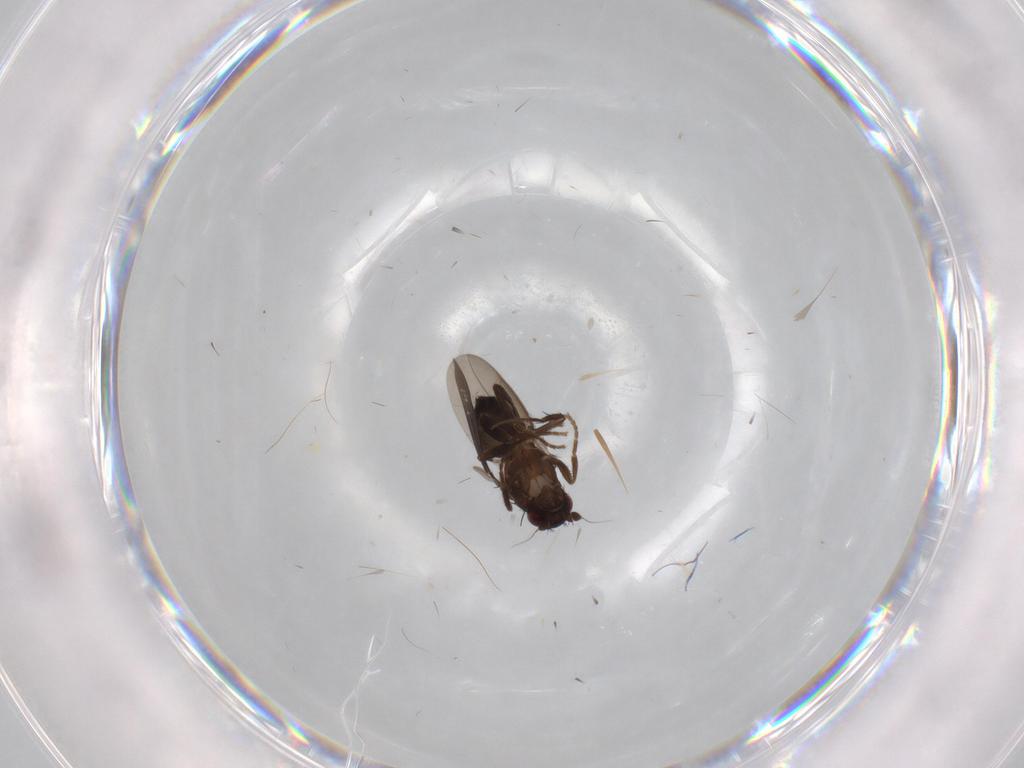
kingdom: Animalia
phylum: Arthropoda
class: Insecta
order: Diptera
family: Sphaeroceridae
